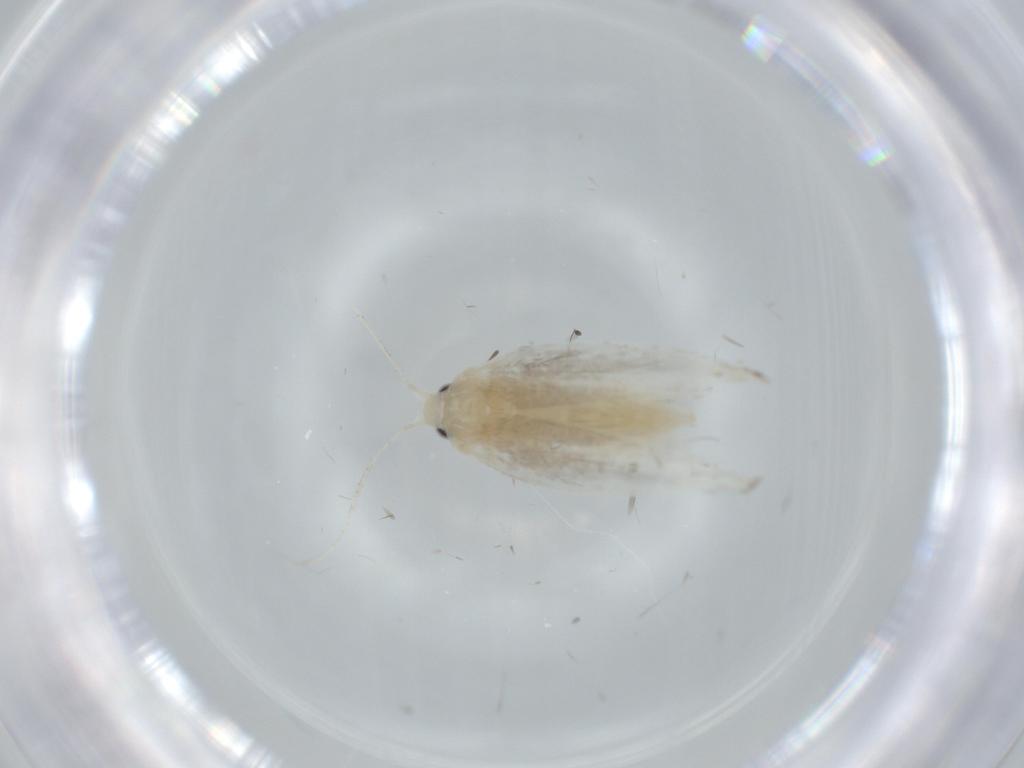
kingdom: Animalia
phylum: Arthropoda
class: Insecta
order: Lepidoptera
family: Lyonetiidae
